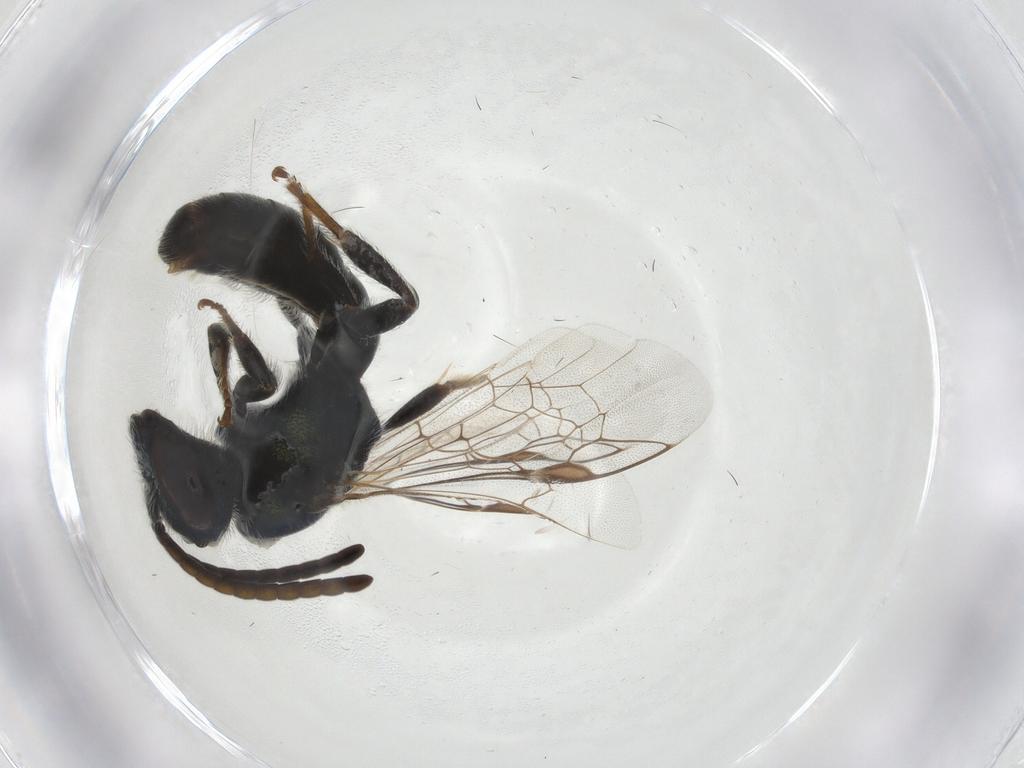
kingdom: Animalia
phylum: Arthropoda
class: Insecta
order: Hymenoptera
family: Halictidae
